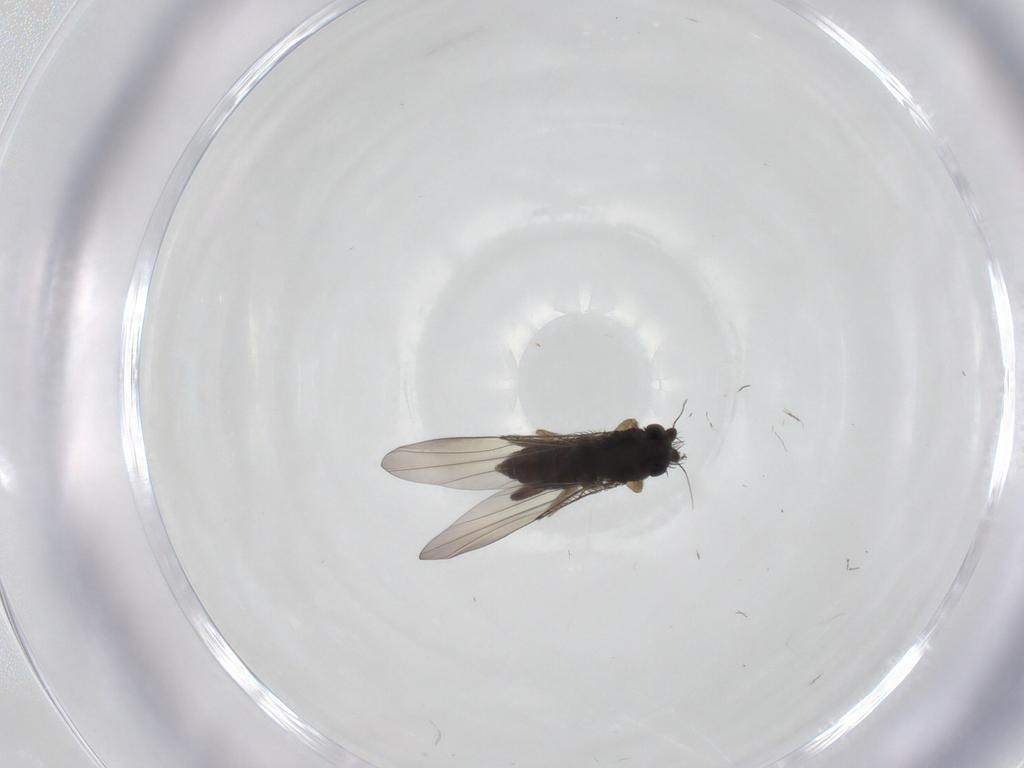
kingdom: Animalia
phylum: Arthropoda
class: Insecta
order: Diptera
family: Phoridae
